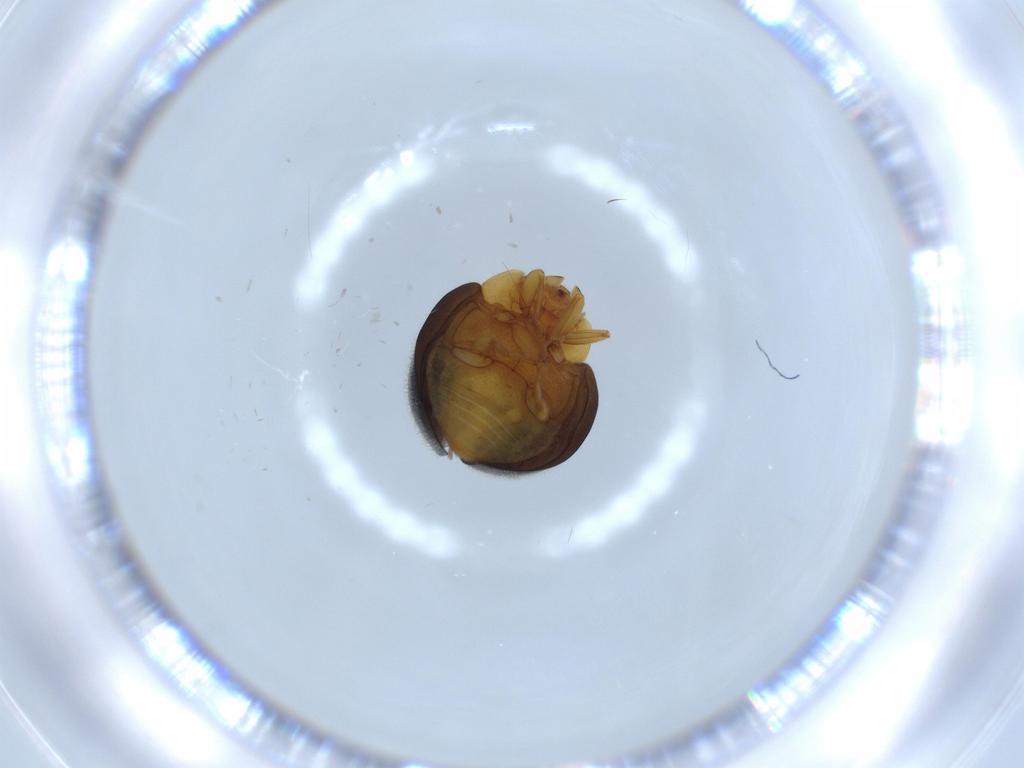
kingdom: Animalia
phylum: Arthropoda
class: Insecta
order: Coleoptera
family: Coccinellidae
